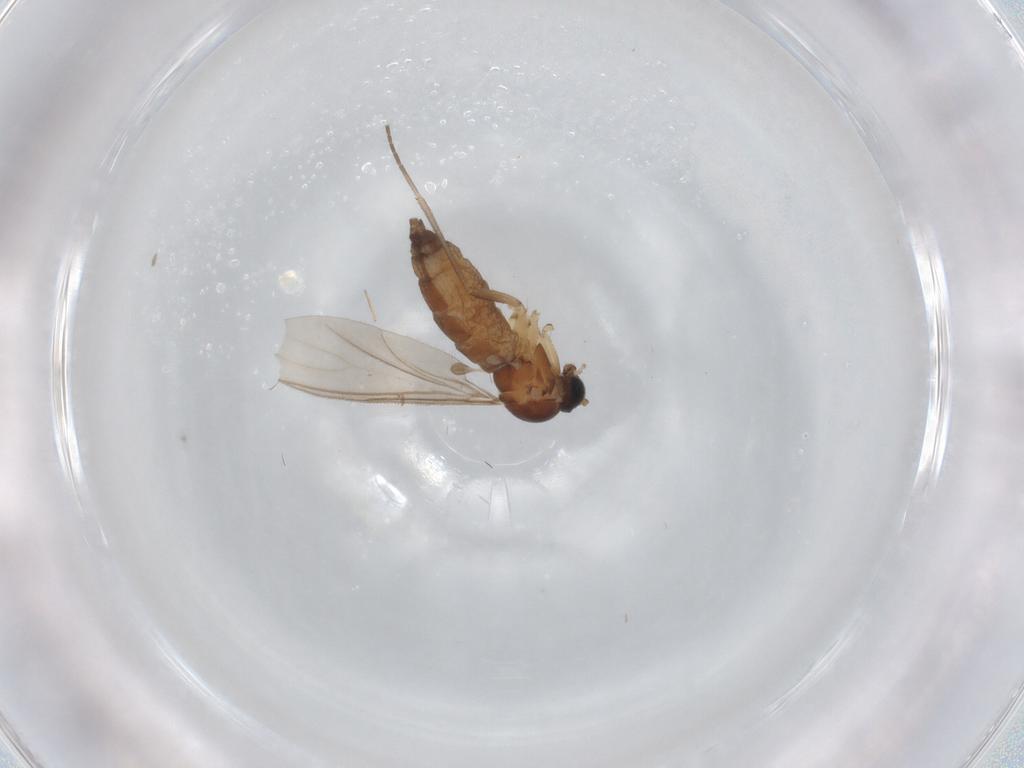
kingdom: Animalia
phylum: Arthropoda
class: Insecta
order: Diptera
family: Sciaridae
